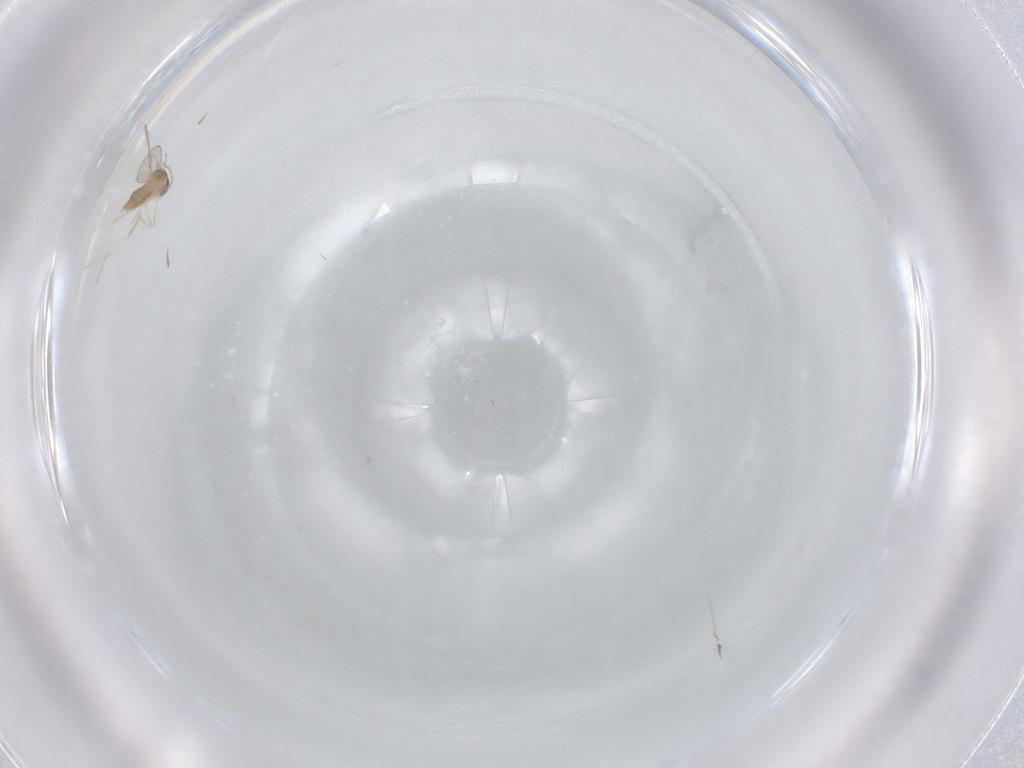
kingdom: Animalia
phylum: Arthropoda
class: Insecta
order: Diptera
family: Cecidomyiidae
